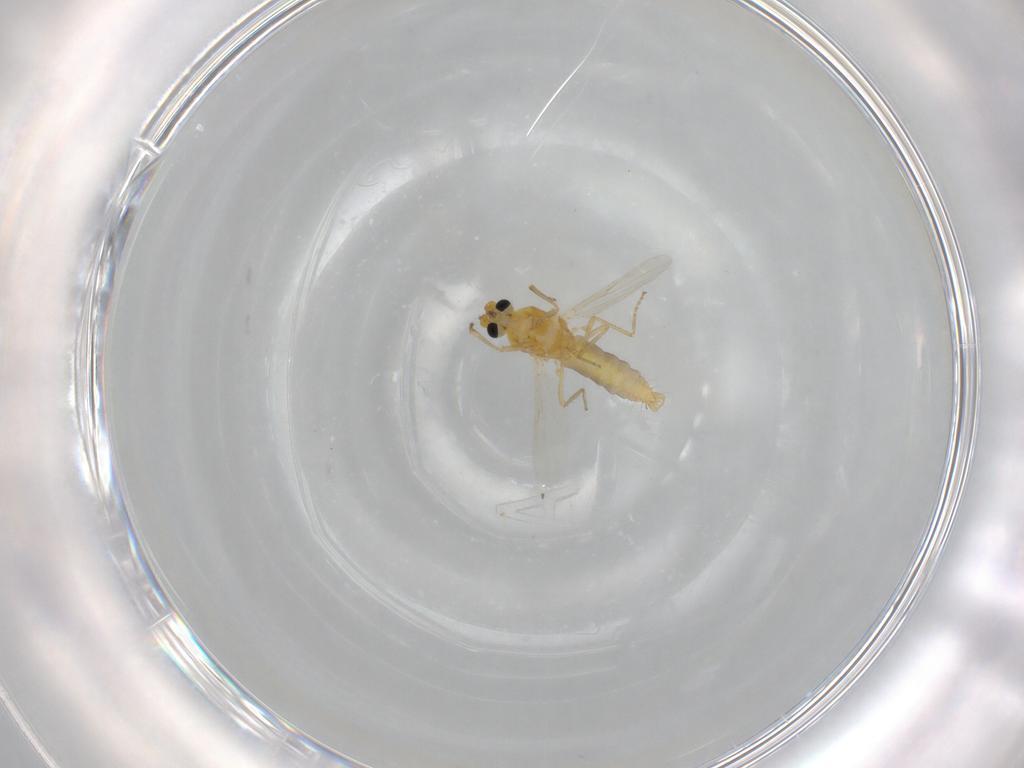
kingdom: Animalia
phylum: Arthropoda
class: Insecta
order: Diptera
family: Ceratopogonidae
